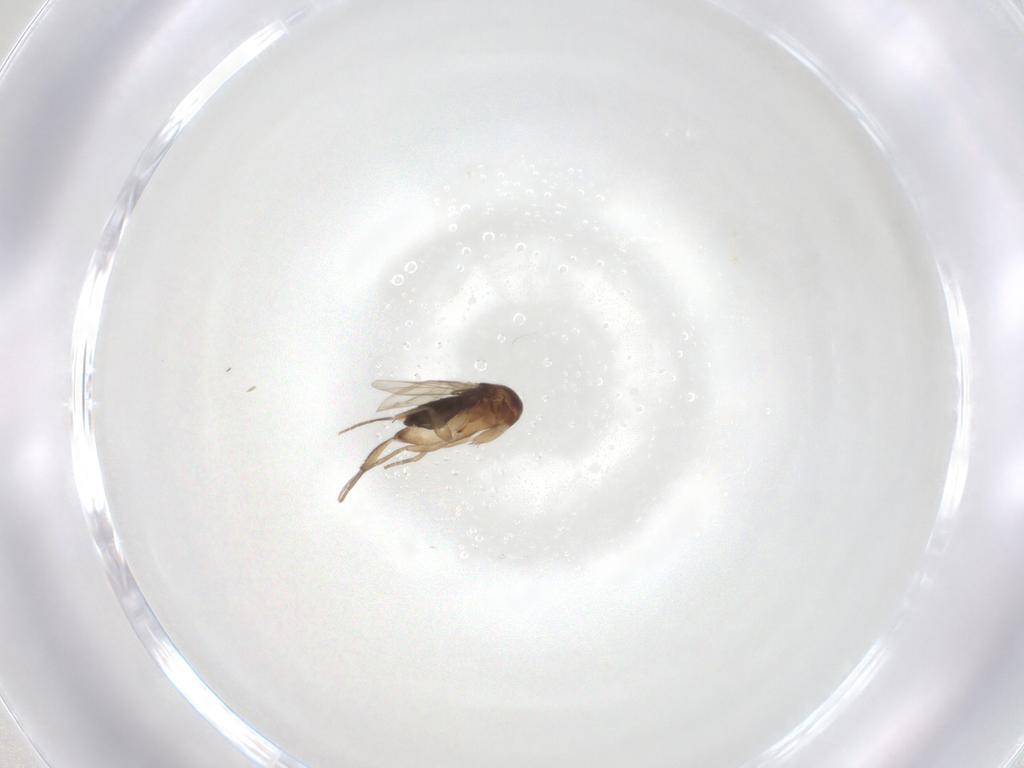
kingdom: Animalia
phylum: Arthropoda
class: Insecta
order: Diptera
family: Phoridae
